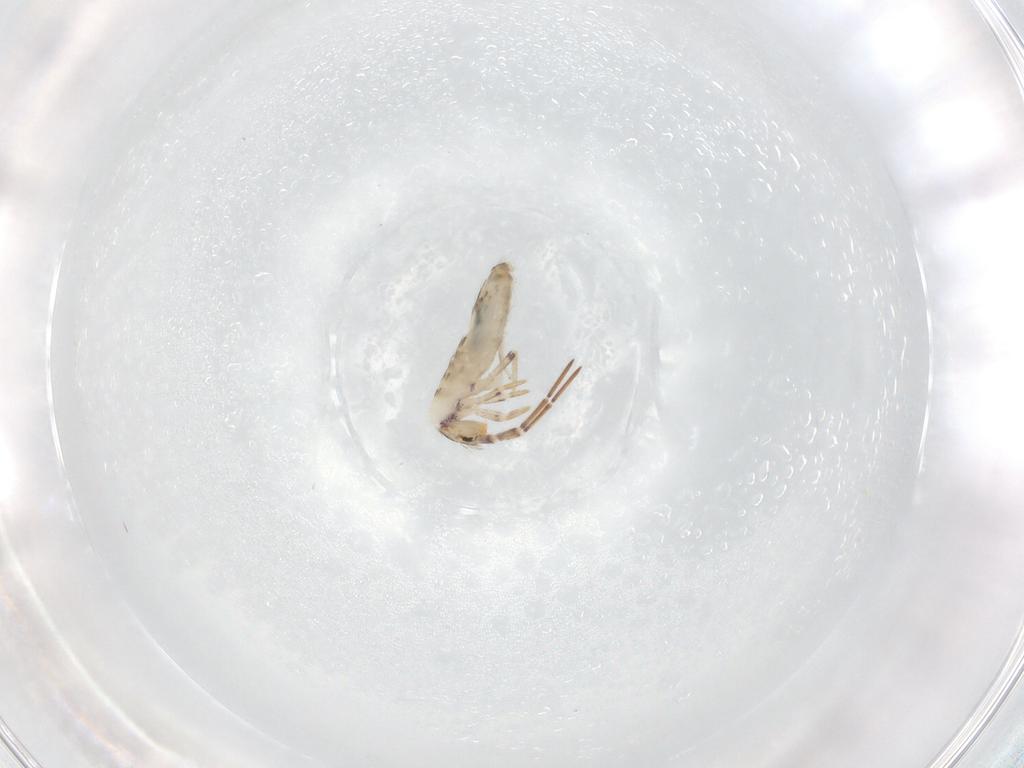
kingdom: Animalia
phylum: Arthropoda
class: Collembola
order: Entomobryomorpha
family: Entomobryidae
